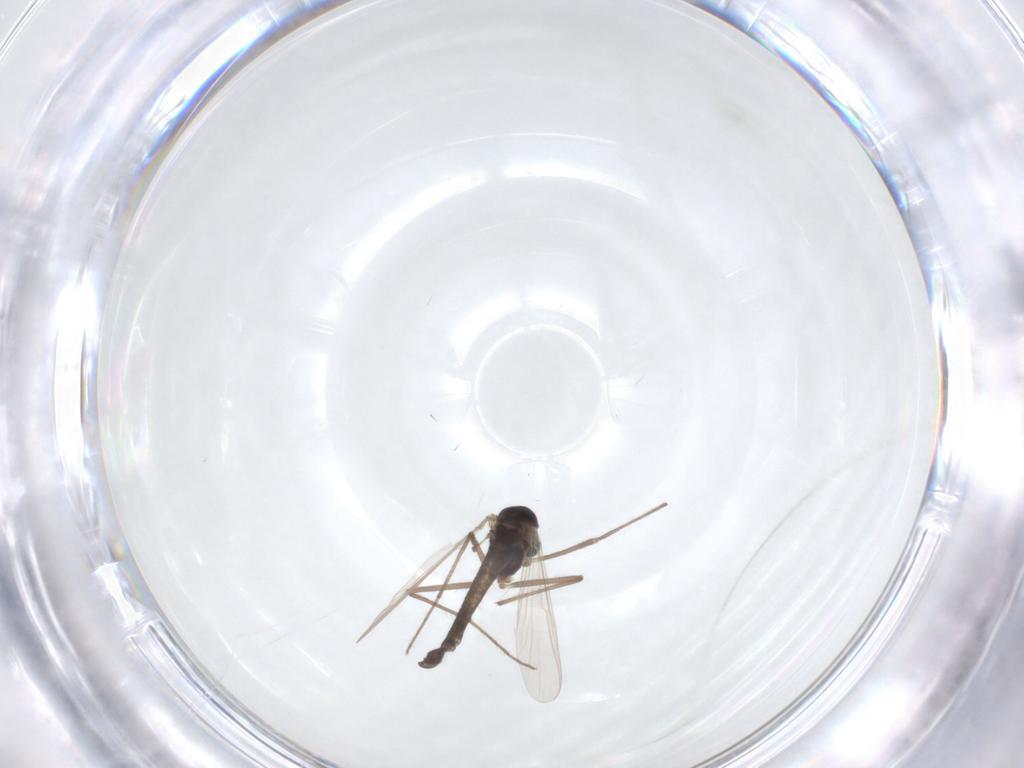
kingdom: Animalia
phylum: Arthropoda
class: Insecta
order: Diptera
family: Chironomidae
